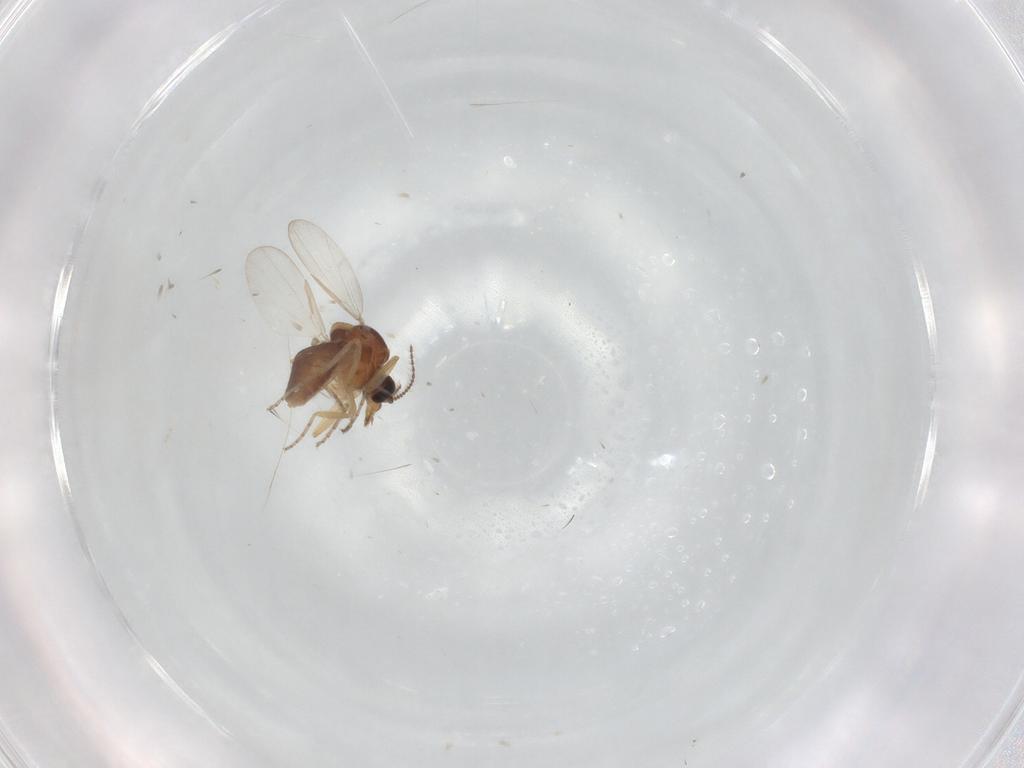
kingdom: Animalia
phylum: Arthropoda
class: Insecta
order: Diptera
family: Ceratopogonidae
